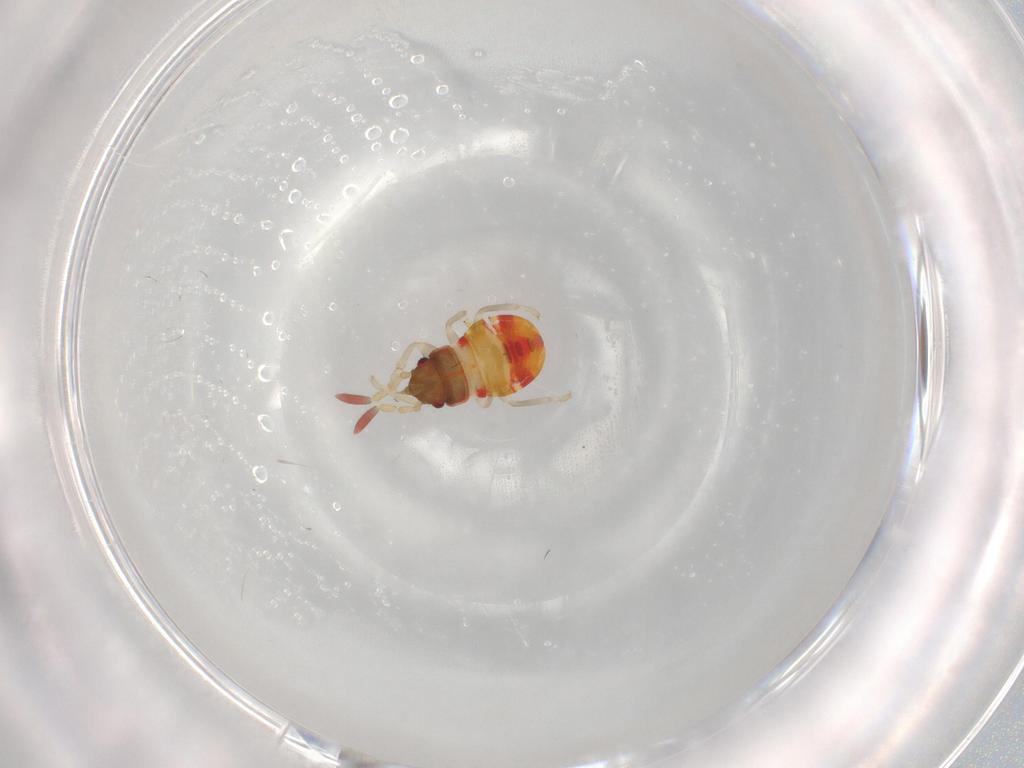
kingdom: Animalia
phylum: Arthropoda
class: Insecta
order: Hemiptera
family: Rhyparochromidae
